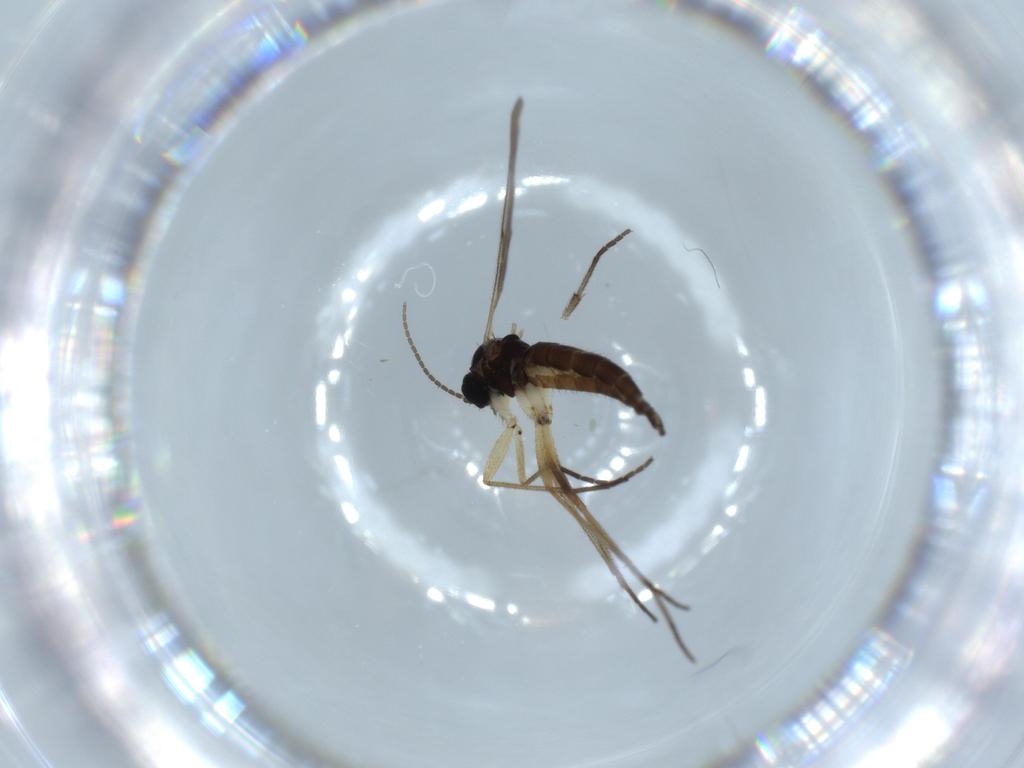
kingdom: Animalia
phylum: Arthropoda
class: Insecta
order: Diptera
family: Sciaridae
